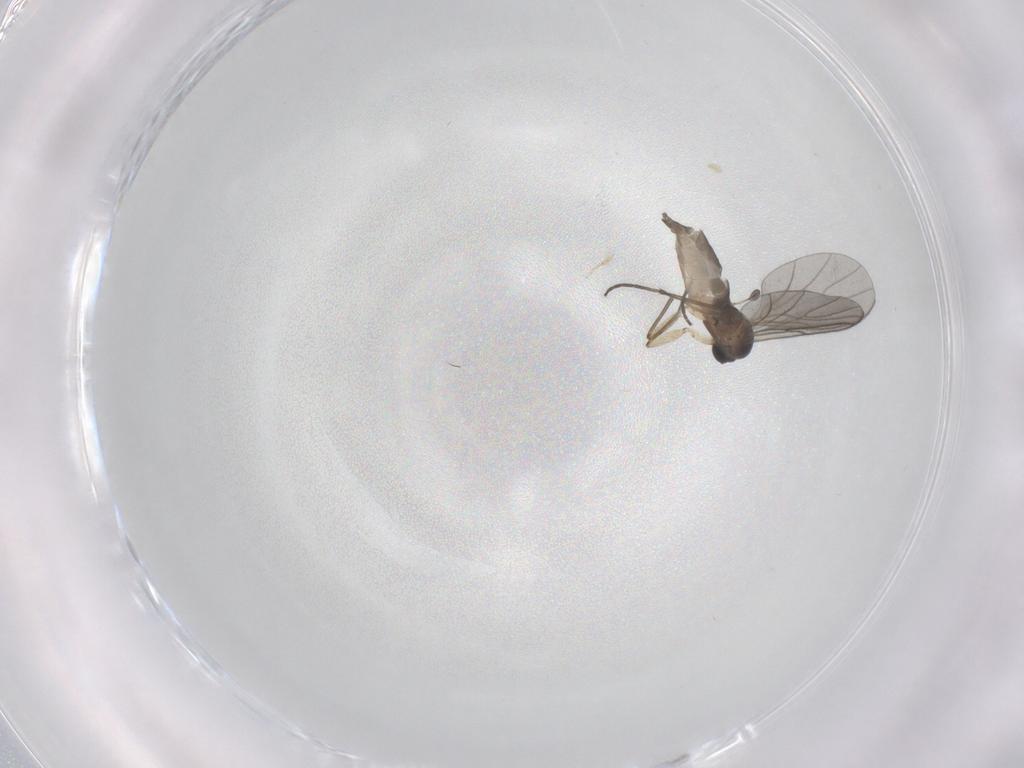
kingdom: Animalia
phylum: Arthropoda
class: Insecta
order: Diptera
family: Sciaridae
